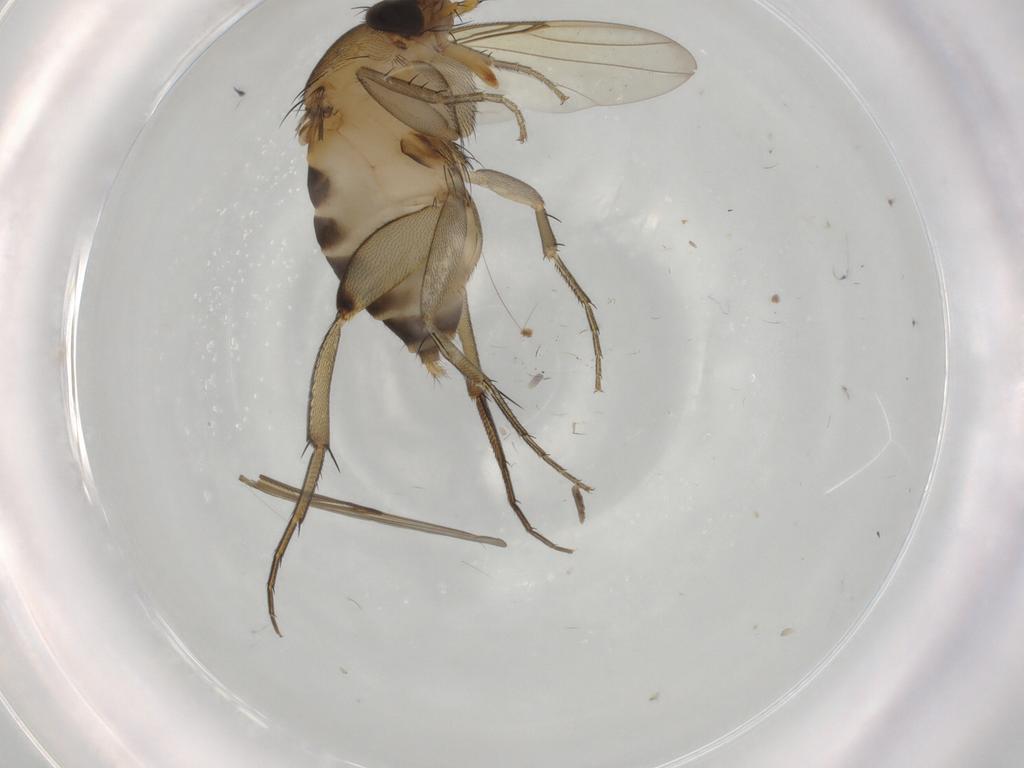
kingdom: Animalia
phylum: Arthropoda
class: Insecta
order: Diptera
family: Phoridae
